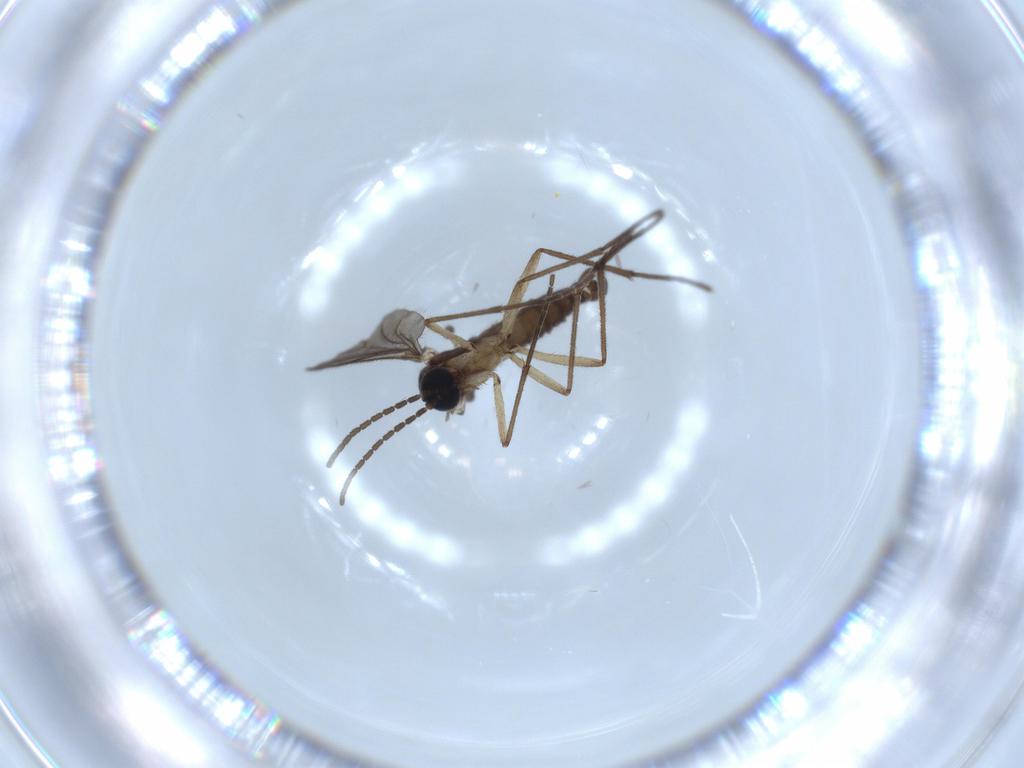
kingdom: Animalia
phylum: Arthropoda
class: Insecta
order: Diptera
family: Sciaridae
